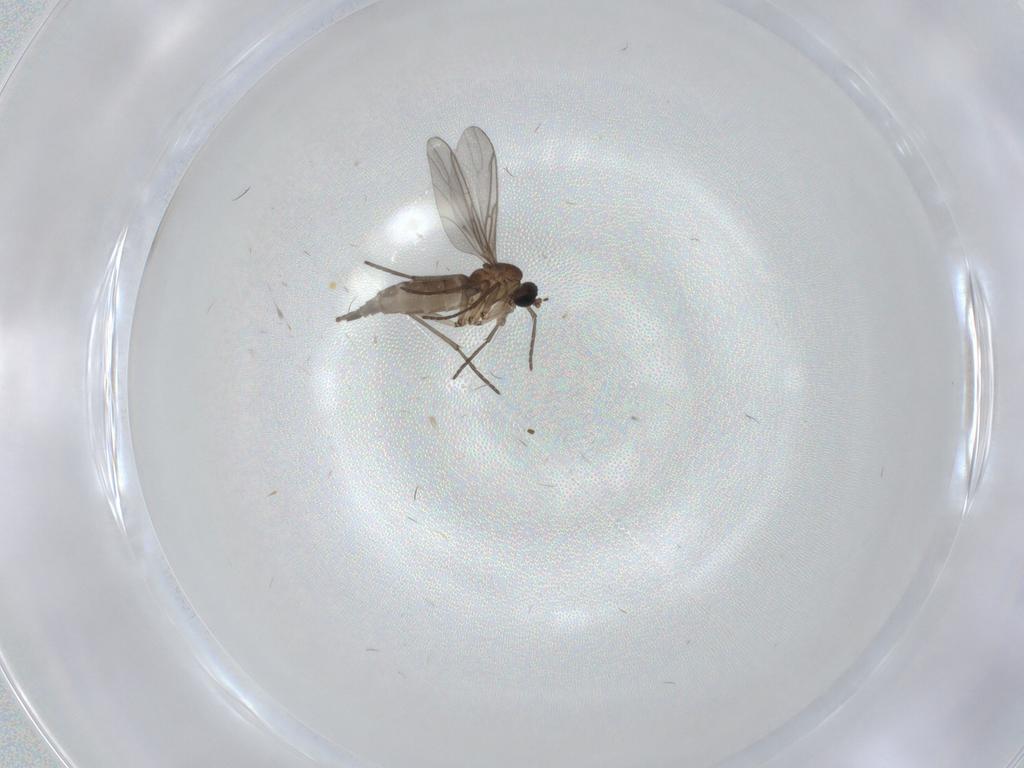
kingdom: Animalia
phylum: Arthropoda
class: Insecta
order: Diptera
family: Sciaridae
